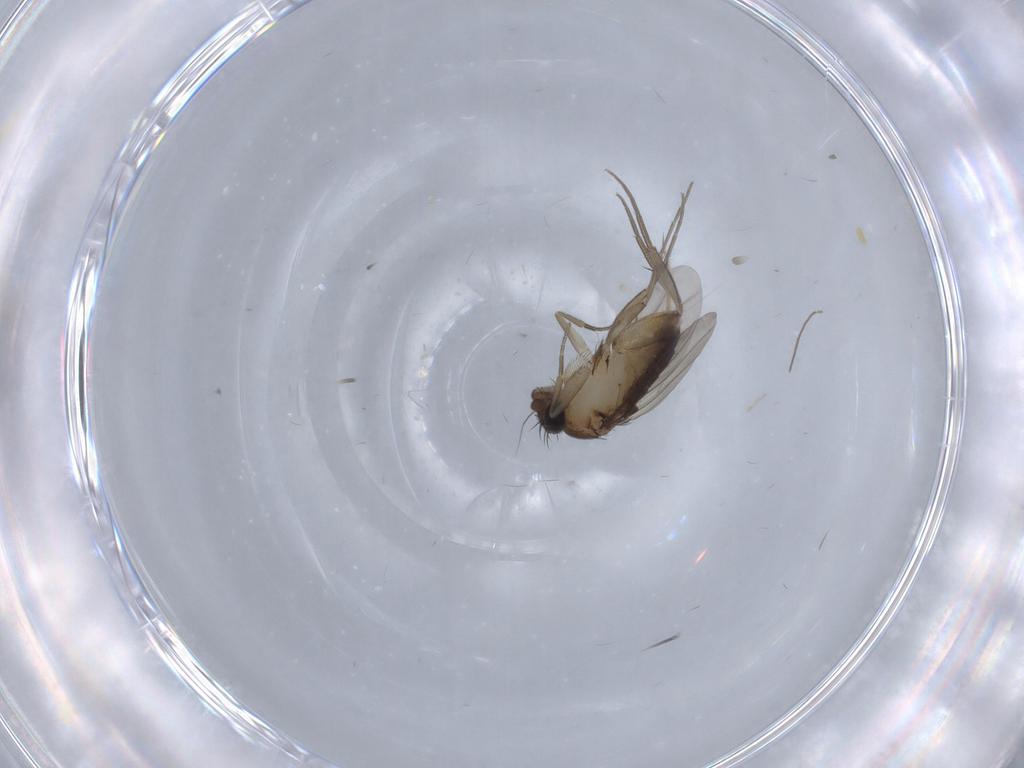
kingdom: Animalia
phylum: Arthropoda
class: Insecta
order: Diptera
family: Phoridae
